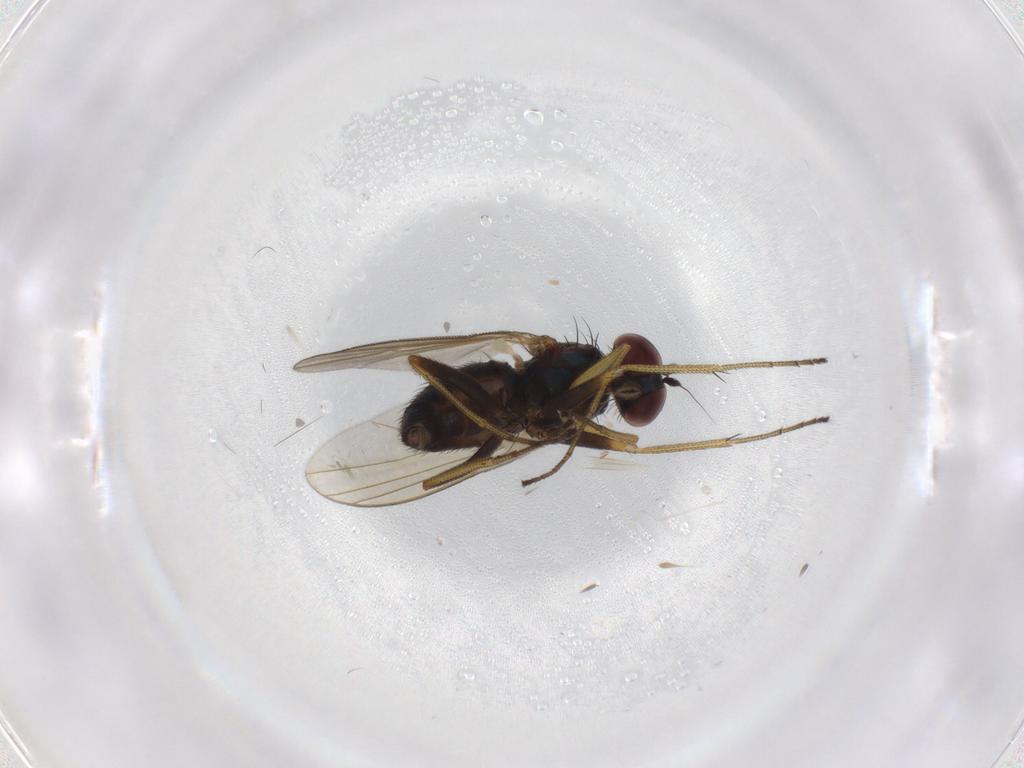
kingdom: Animalia
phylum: Arthropoda
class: Insecta
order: Diptera
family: Dolichopodidae
